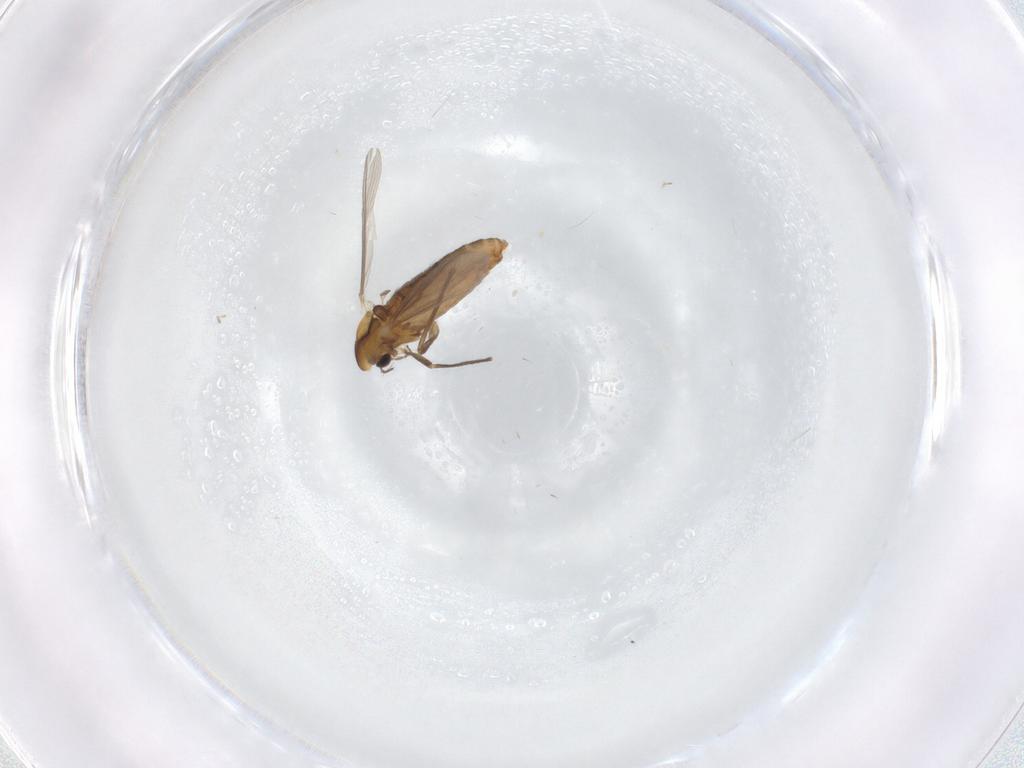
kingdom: Animalia
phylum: Arthropoda
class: Insecta
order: Diptera
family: Chironomidae
